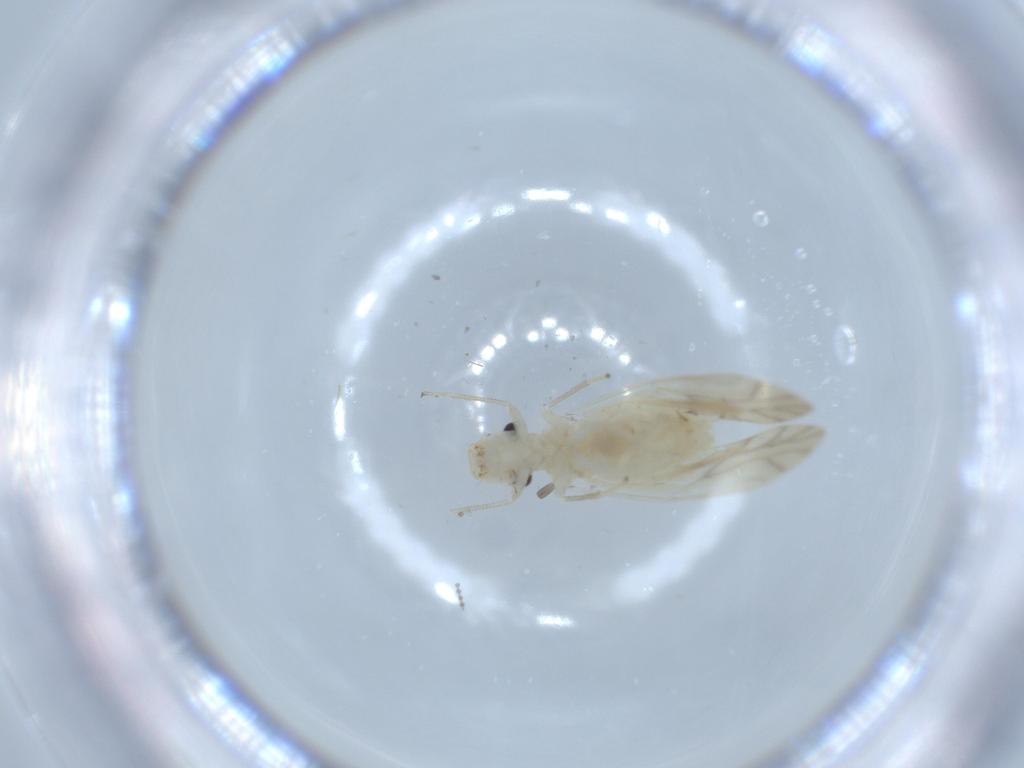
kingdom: Animalia
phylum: Arthropoda
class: Insecta
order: Psocodea
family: Caeciliusidae
